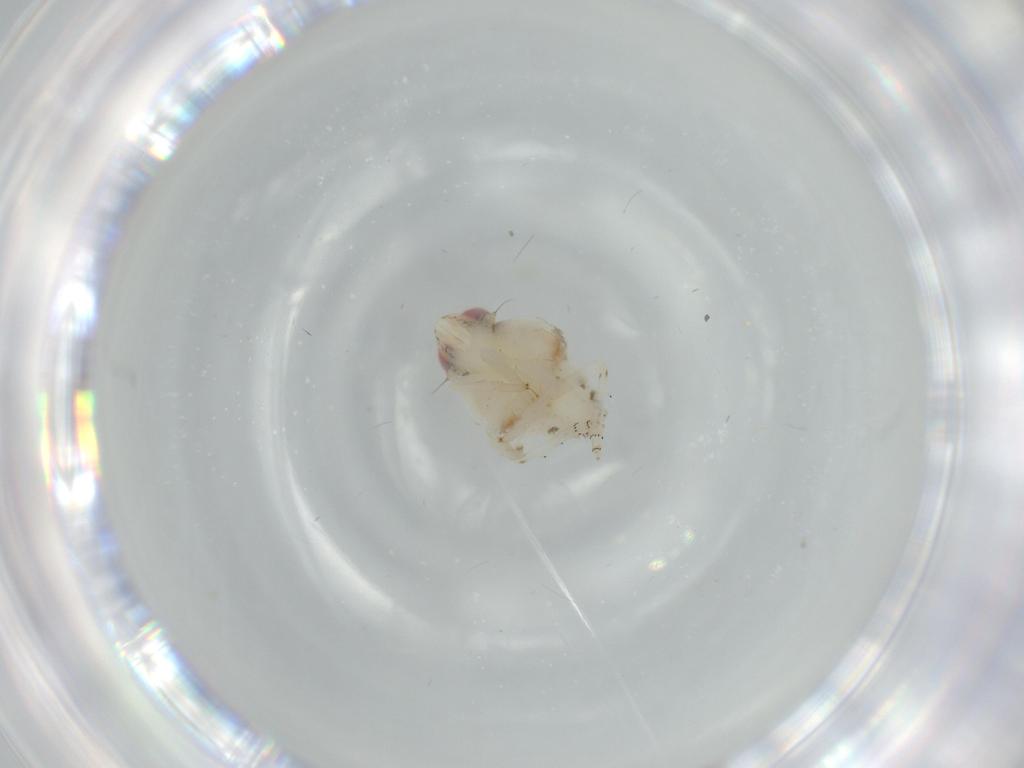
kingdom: Animalia
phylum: Arthropoda
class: Insecta
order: Hemiptera
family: Nogodinidae
